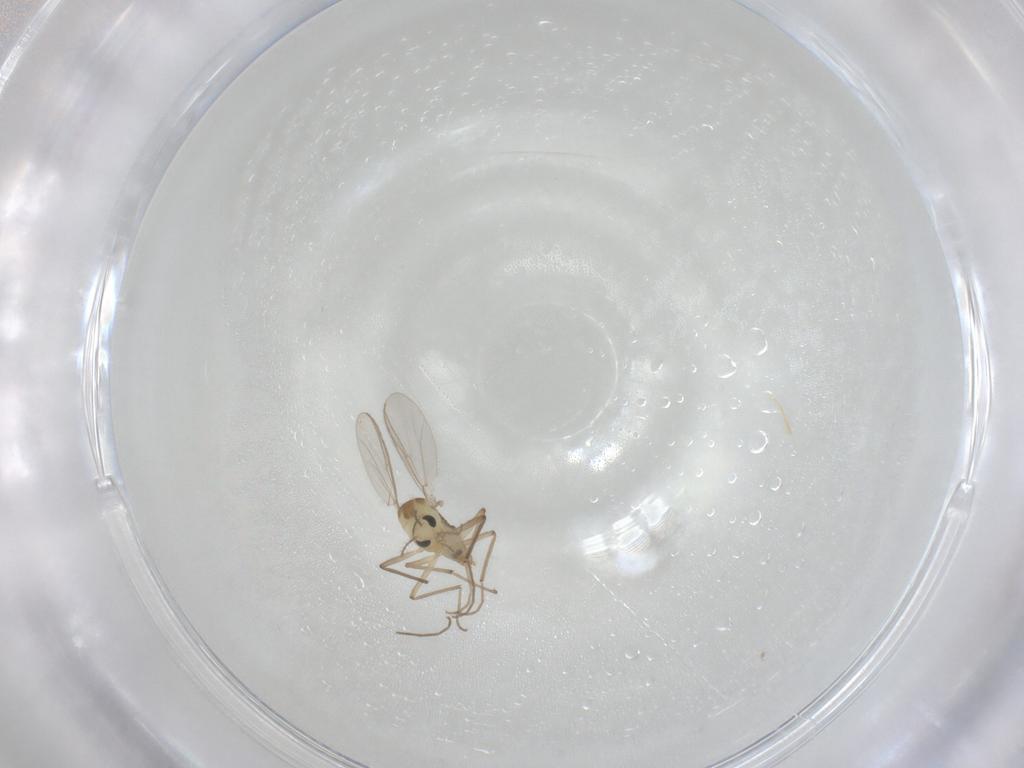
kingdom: Animalia
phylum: Arthropoda
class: Insecta
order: Diptera
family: Chironomidae
